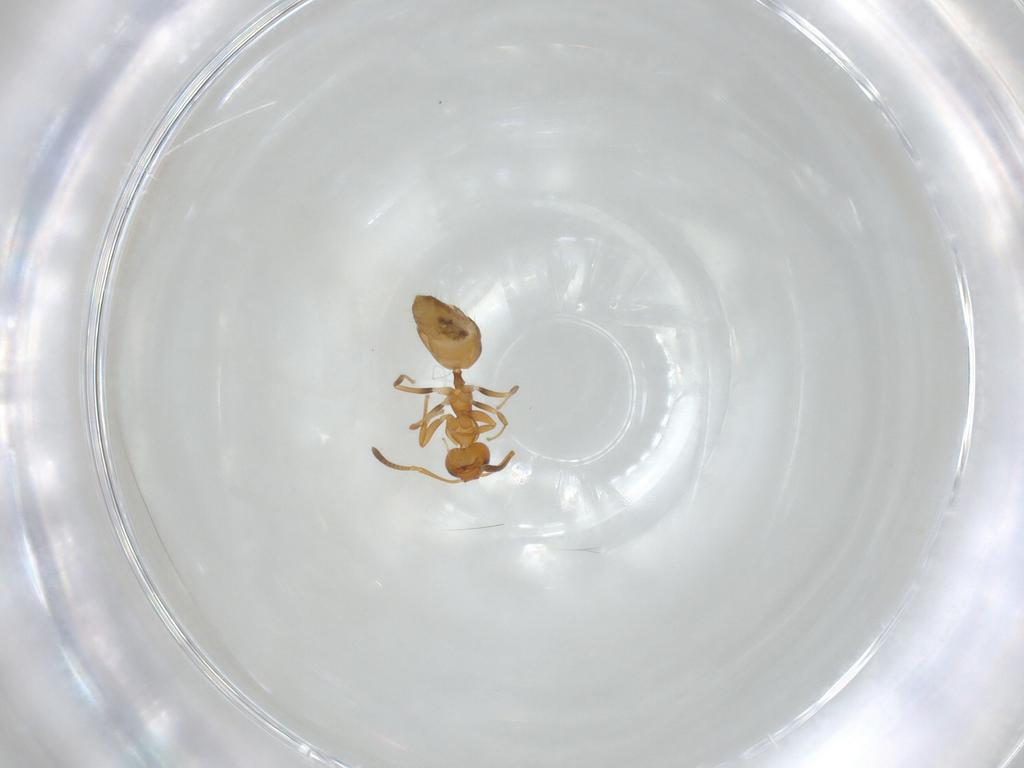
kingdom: Animalia
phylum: Arthropoda
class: Insecta
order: Hymenoptera
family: Formicidae
